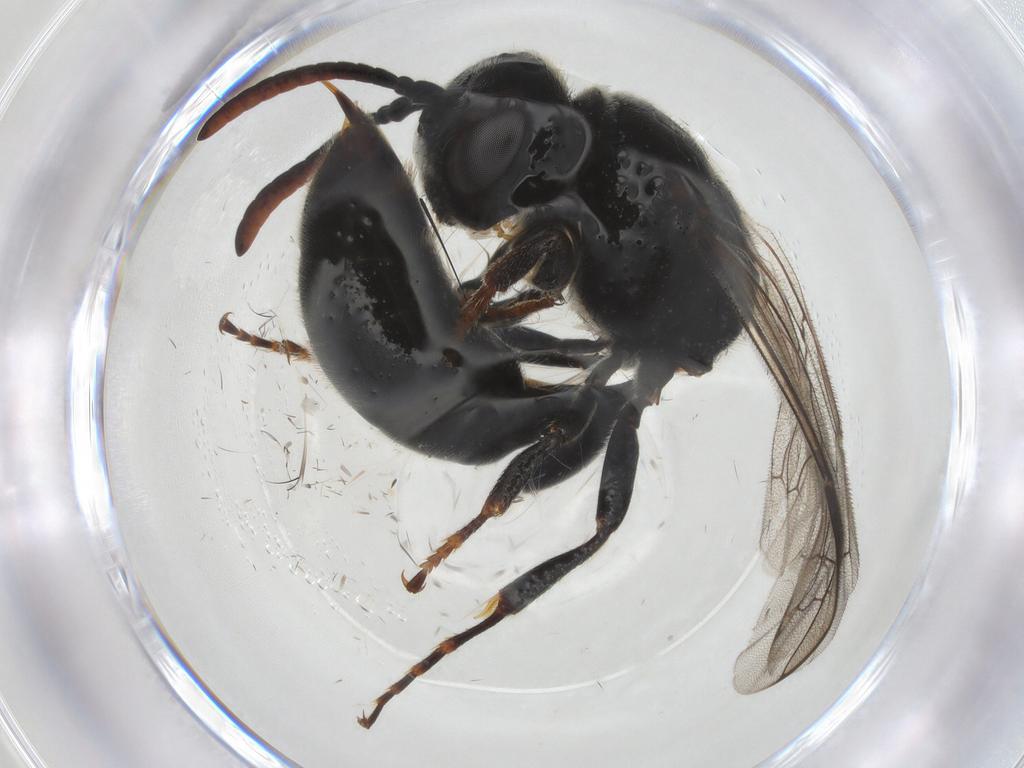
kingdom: Animalia
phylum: Arthropoda
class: Insecta
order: Hymenoptera
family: Psenidae
